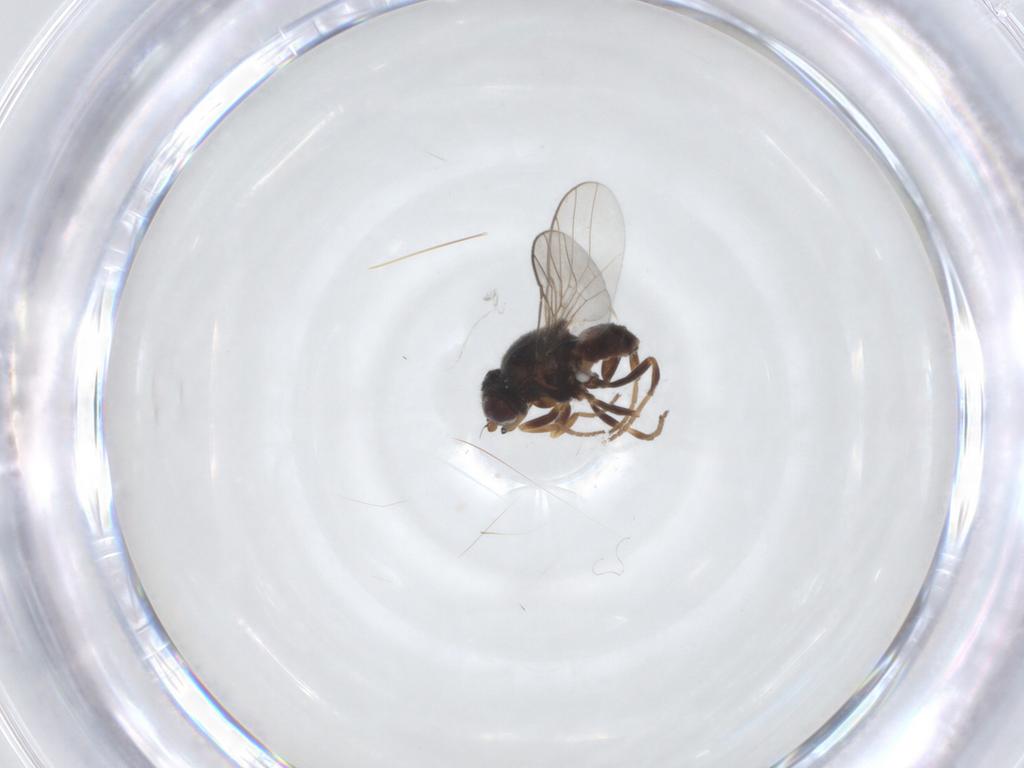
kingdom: Animalia
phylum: Arthropoda
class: Insecta
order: Diptera
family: Chloropidae
